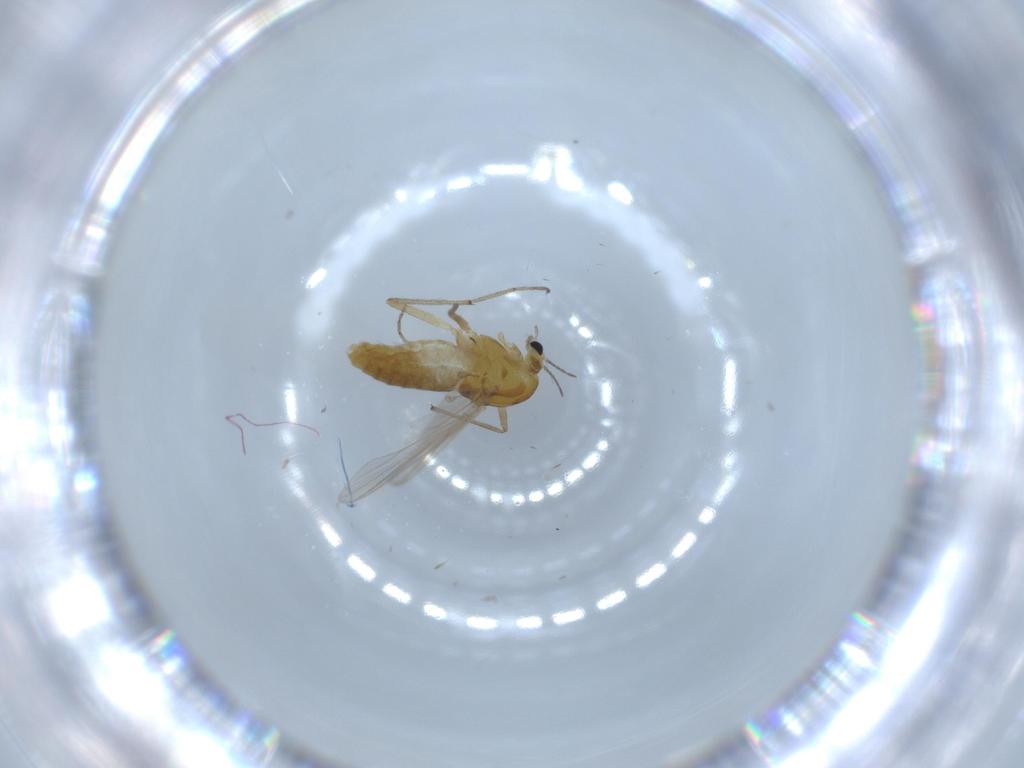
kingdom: Animalia
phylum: Arthropoda
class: Insecta
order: Diptera
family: Chironomidae
